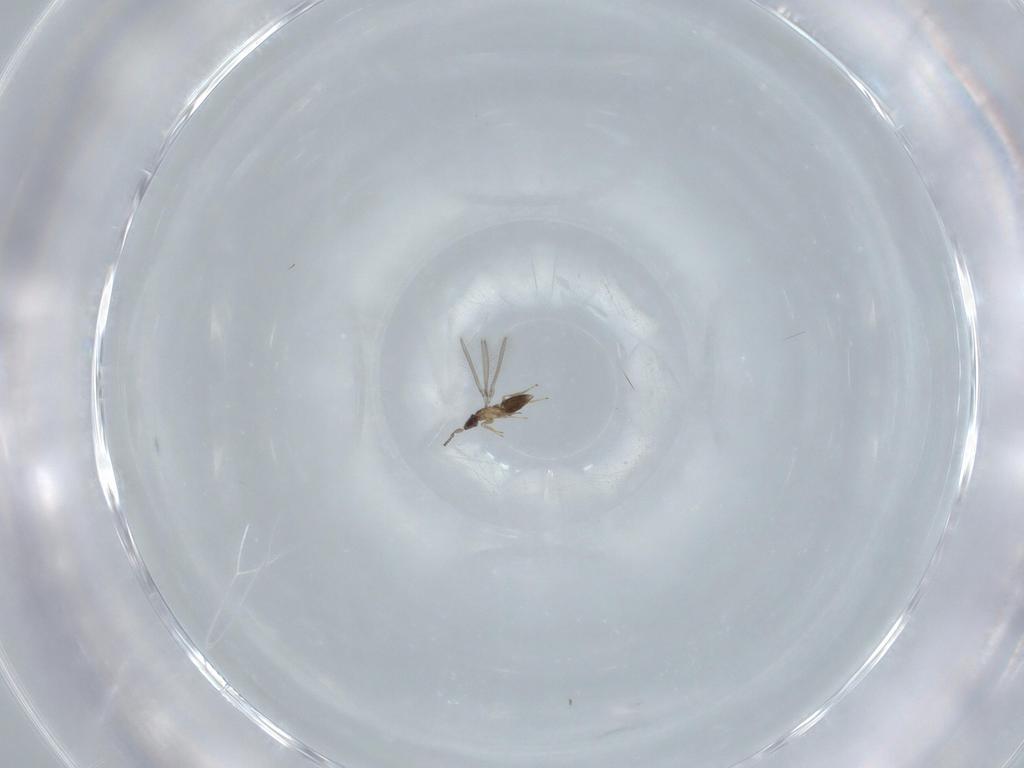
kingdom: Animalia
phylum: Arthropoda
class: Insecta
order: Hymenoptera
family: Mymaridae
